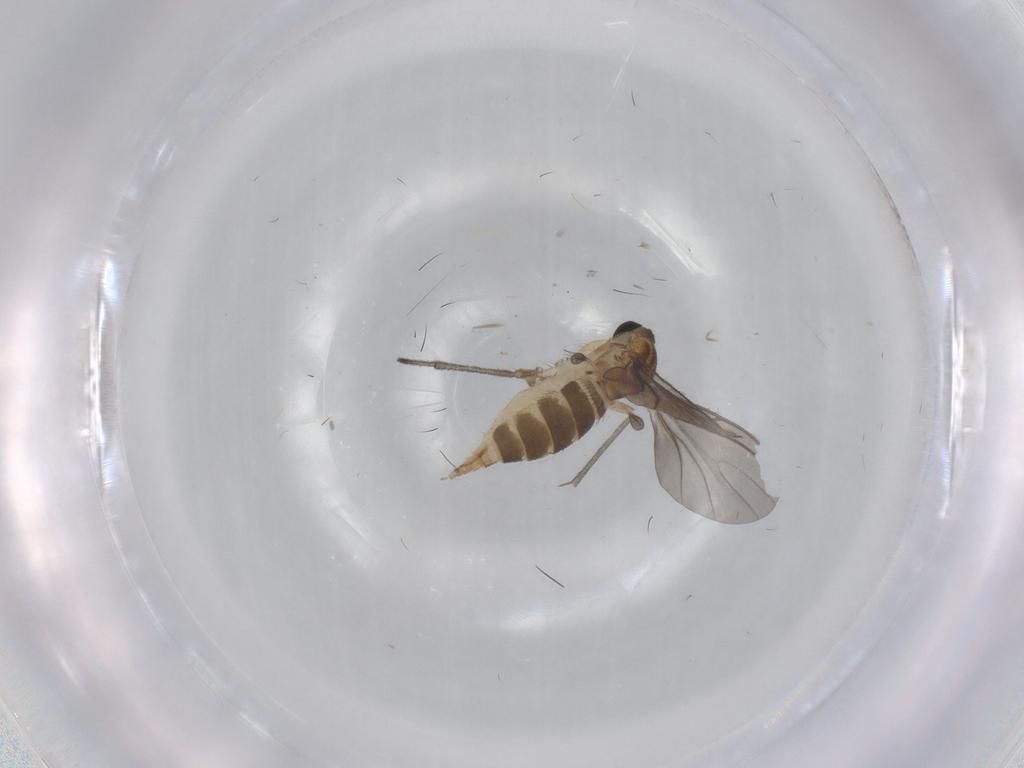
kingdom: Animalia
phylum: Arthropoda
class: Insecta
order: Diptera
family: Sciaridae
